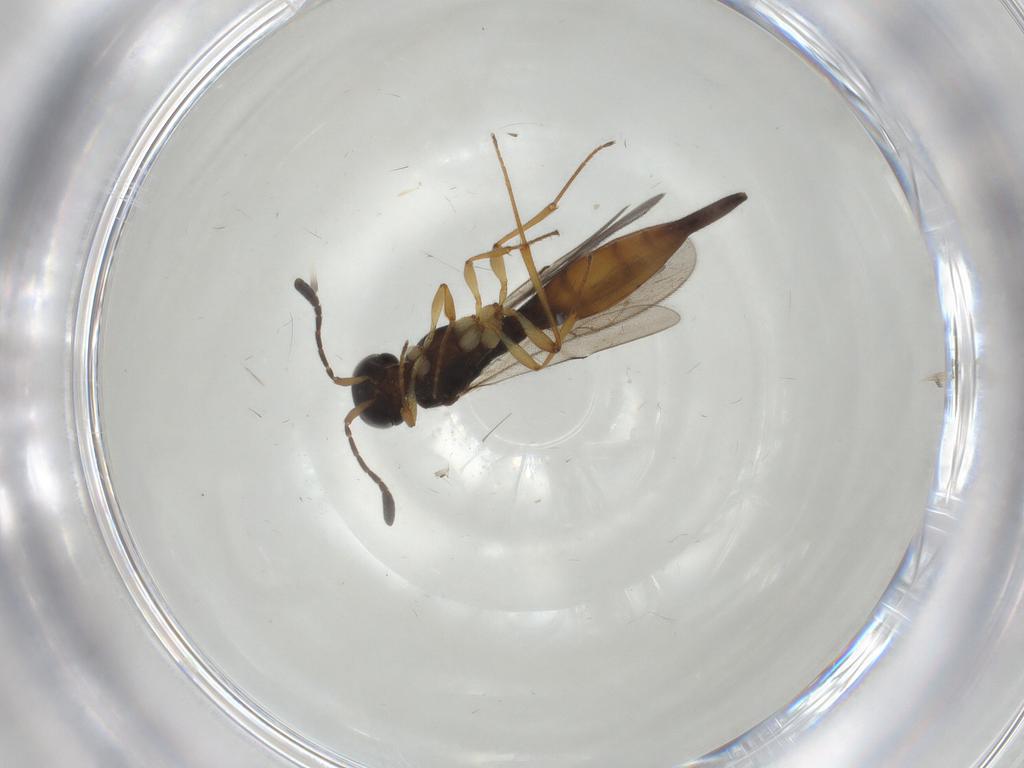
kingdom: Animalia
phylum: Arthropoda
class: Insecta
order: Hymenoptera
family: Scelionidae
